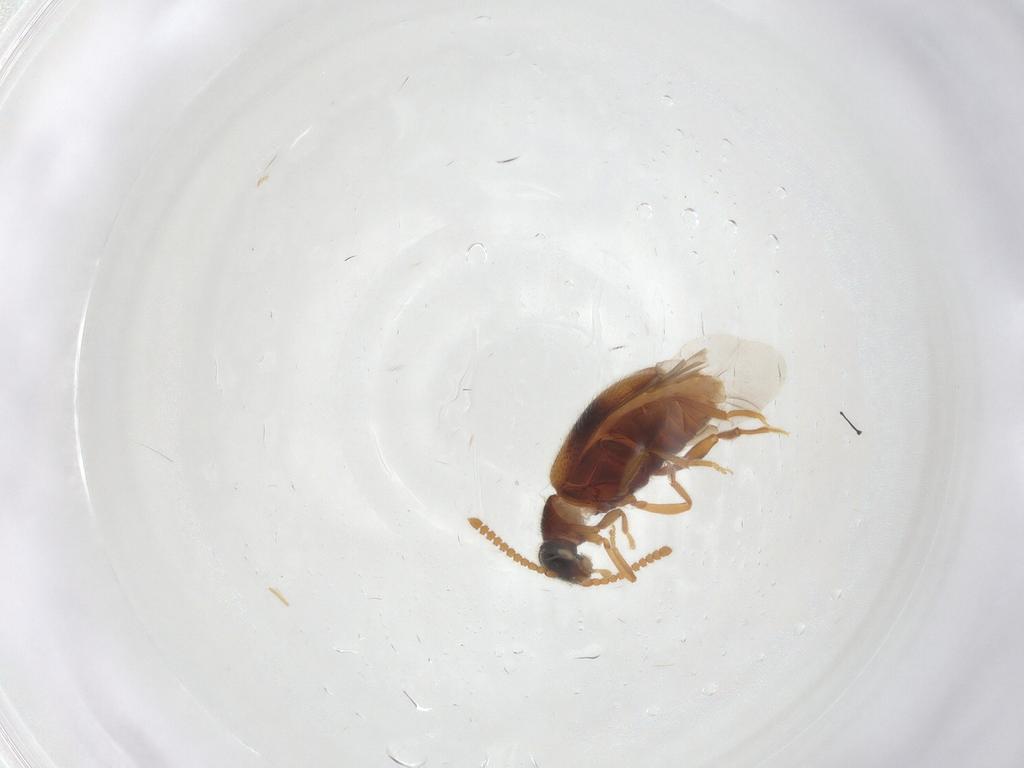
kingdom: Animalia
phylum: Arthropoda
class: Insecta
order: Coleoptera
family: Aderidae
